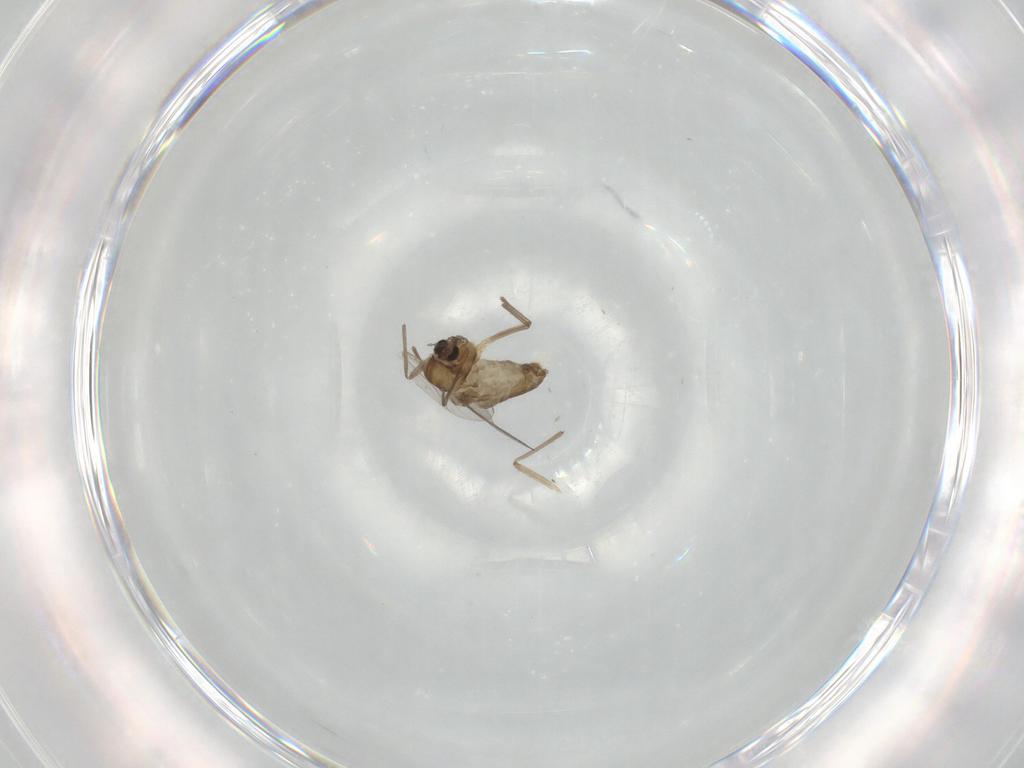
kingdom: Animalia
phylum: Arthropoda
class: Insecta
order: Diptera
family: Chironomidae
